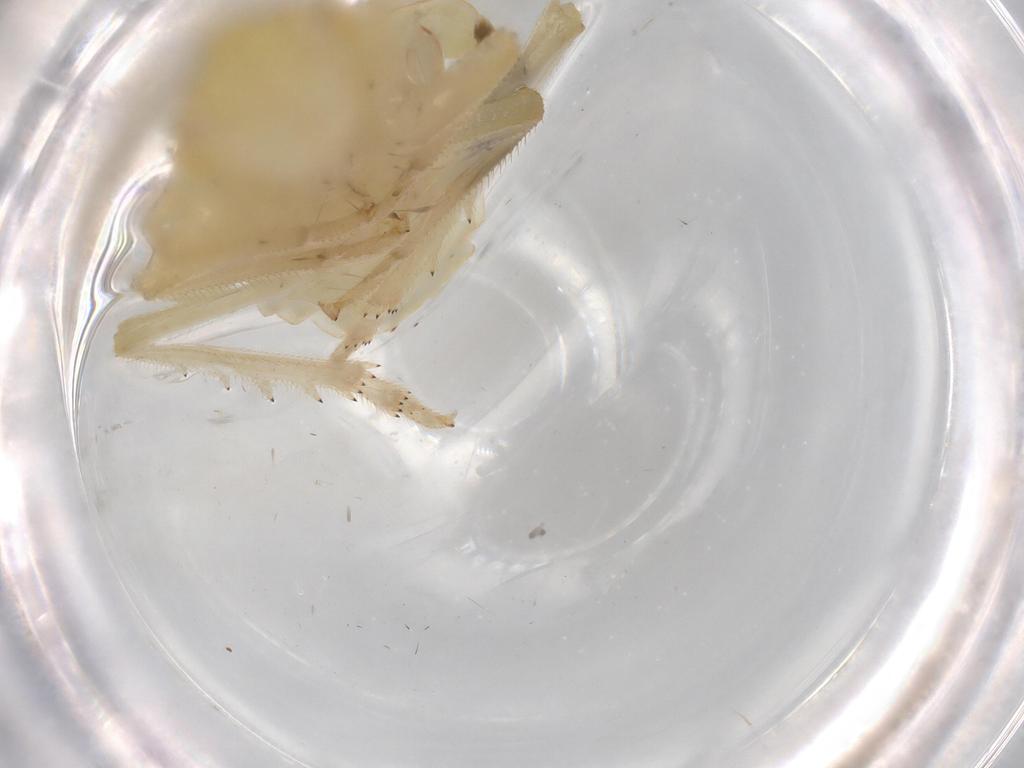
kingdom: Animalia
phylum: Arthropoda
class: Insecta
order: Hemiptera
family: Tropiduchidae
